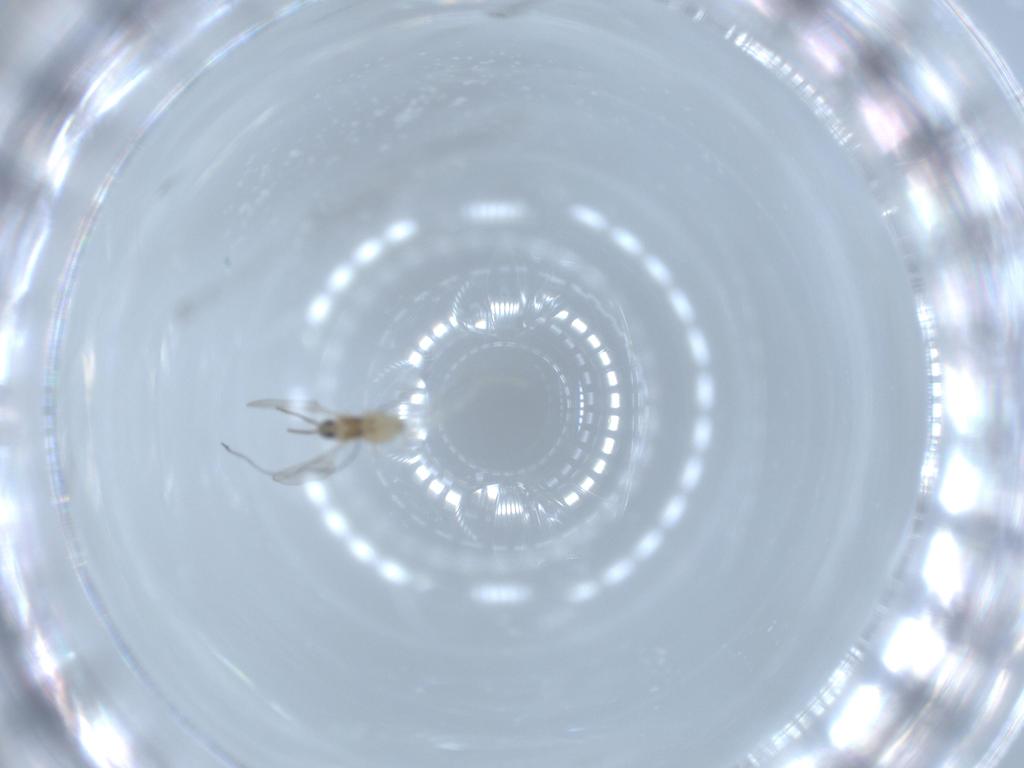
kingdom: Animalia
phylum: Arthropoda
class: Insecta
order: Diptera
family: Cecidomyiidae
